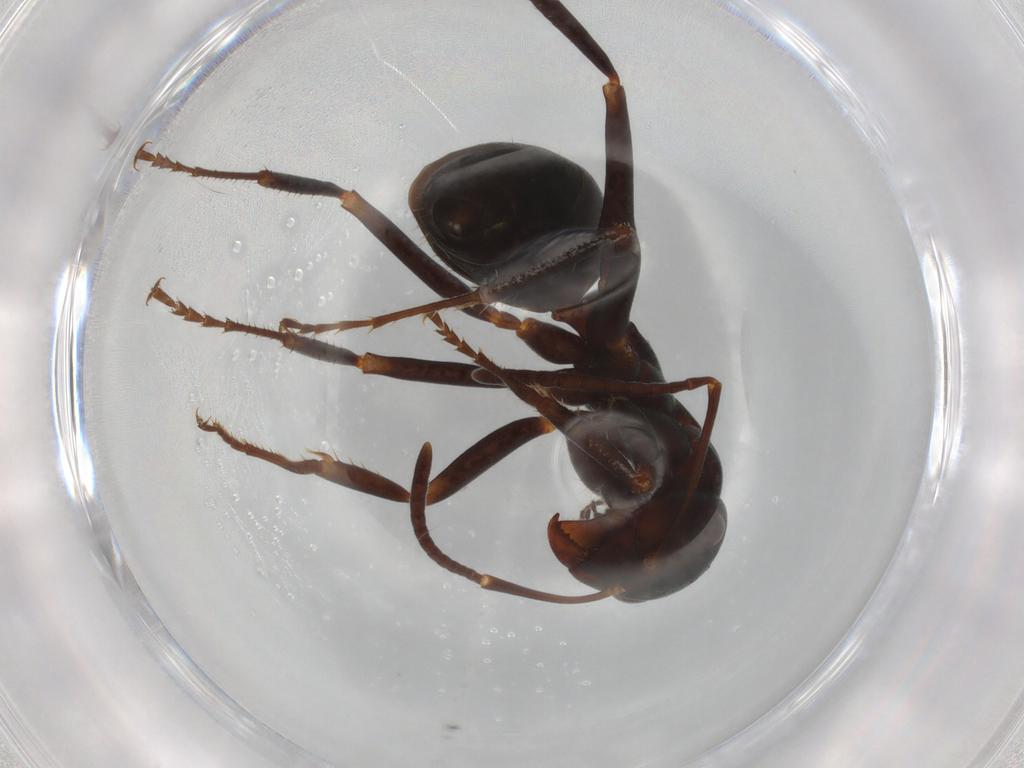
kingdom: Animalia
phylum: Arthropoda
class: Insecta
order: Hymenoptera
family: Formicidae
